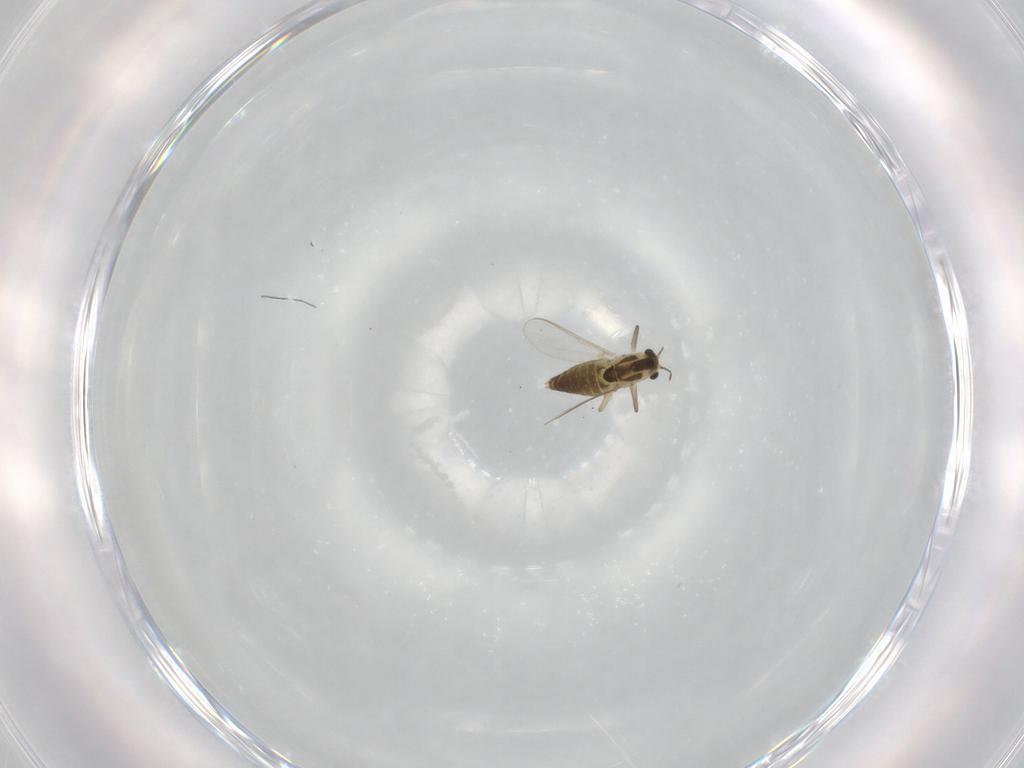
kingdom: Animalia
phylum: Arthropoda
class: Insecta
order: Diptera
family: Chironomidae
